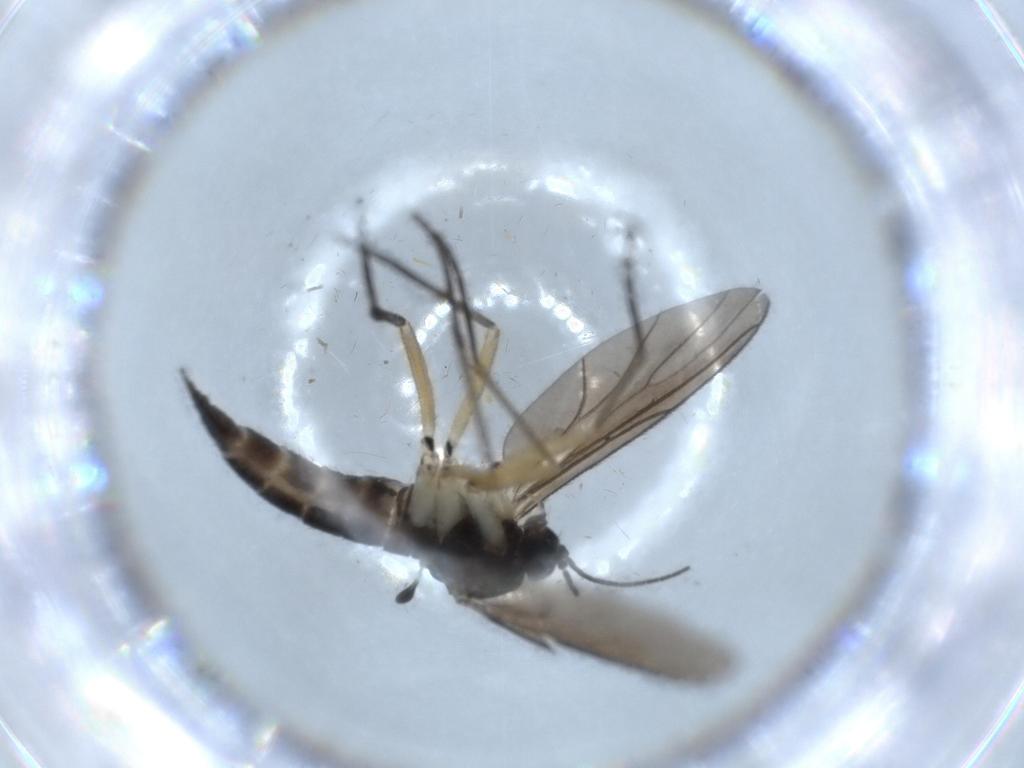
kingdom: Animalia
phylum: Arthropoda
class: Insecta
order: Diptera
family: Sciaridae
